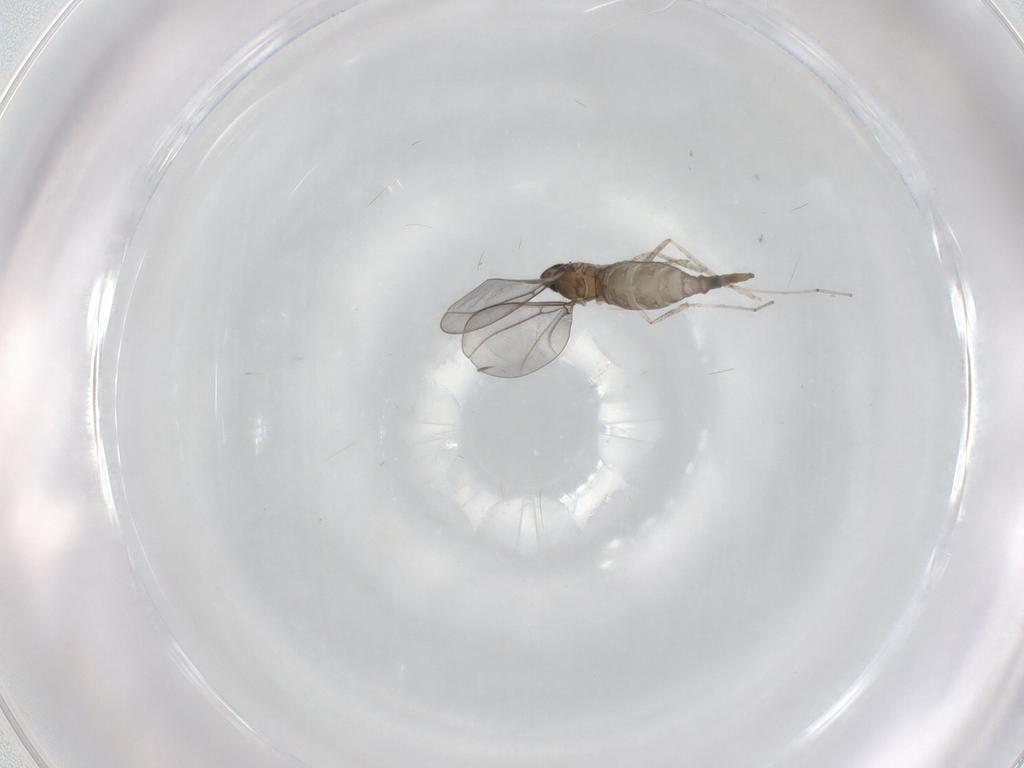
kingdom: Animalia
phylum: Arthropoda
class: Insecta
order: Diptera
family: Cecidomyiidae
